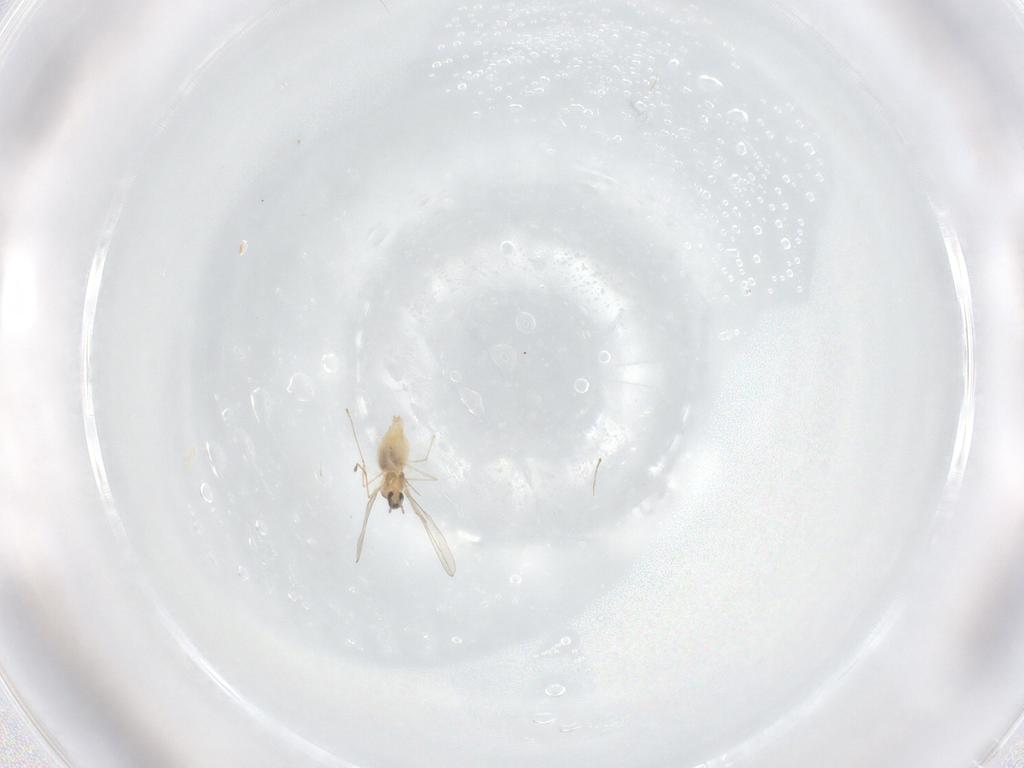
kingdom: Animalia
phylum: Arthropoda
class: Insecta
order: Diptera
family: Cecidomyiidae
